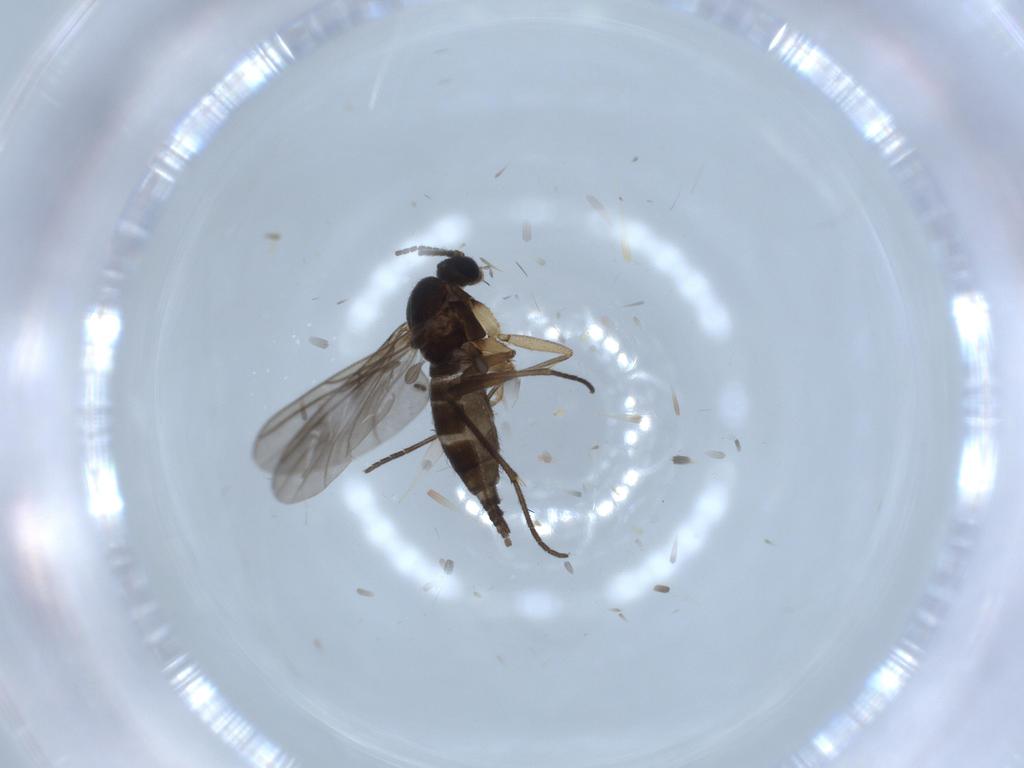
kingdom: Animalia
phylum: Arthropoda
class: Insecta
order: Diptera
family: Sciaridae
